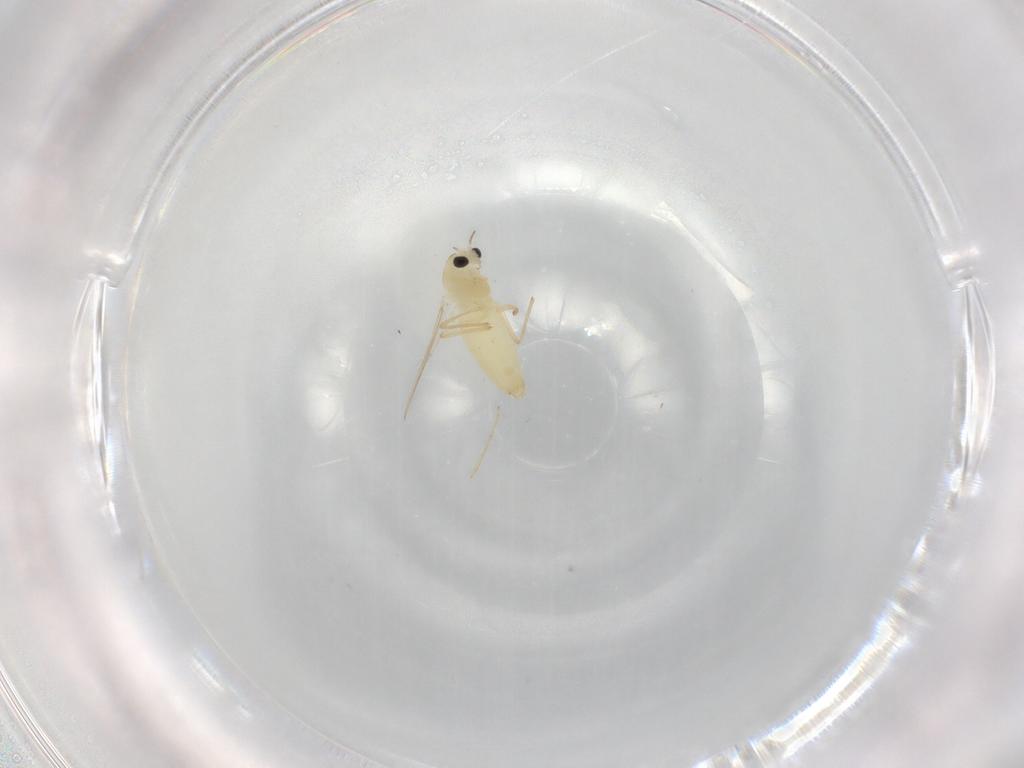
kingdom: Animalia
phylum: Arthropoda
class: Insecta
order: Diptera
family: Chironomidae
